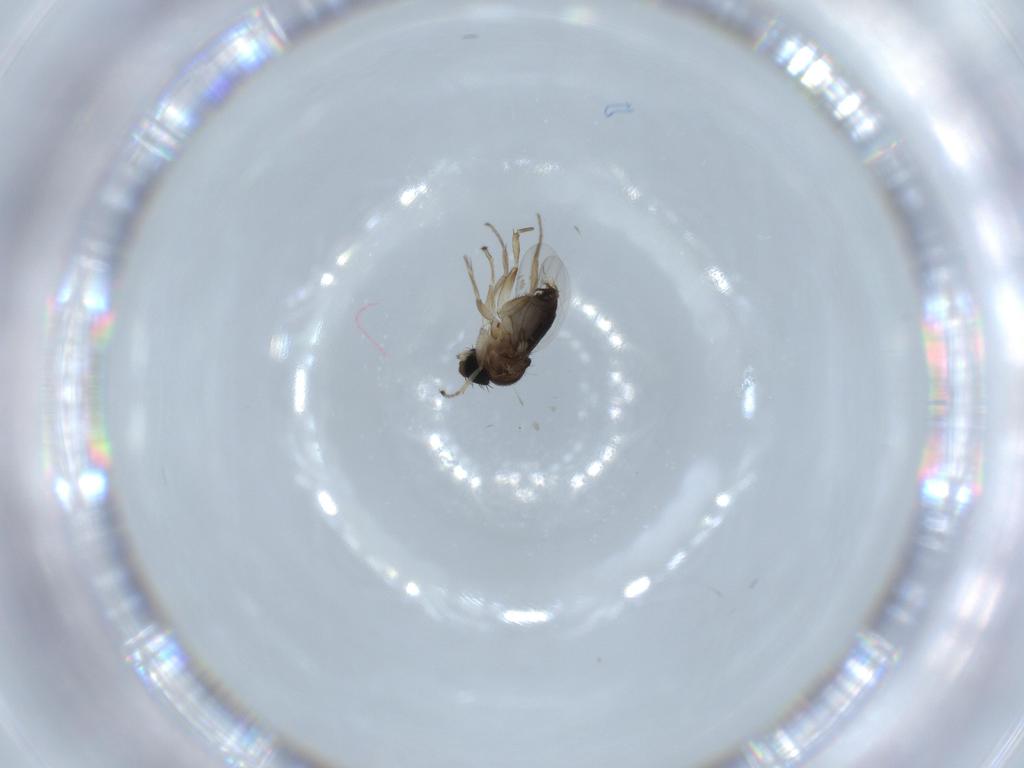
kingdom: Animalia
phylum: Arthropoda
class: Insecta
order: Diptera
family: Phoridae
